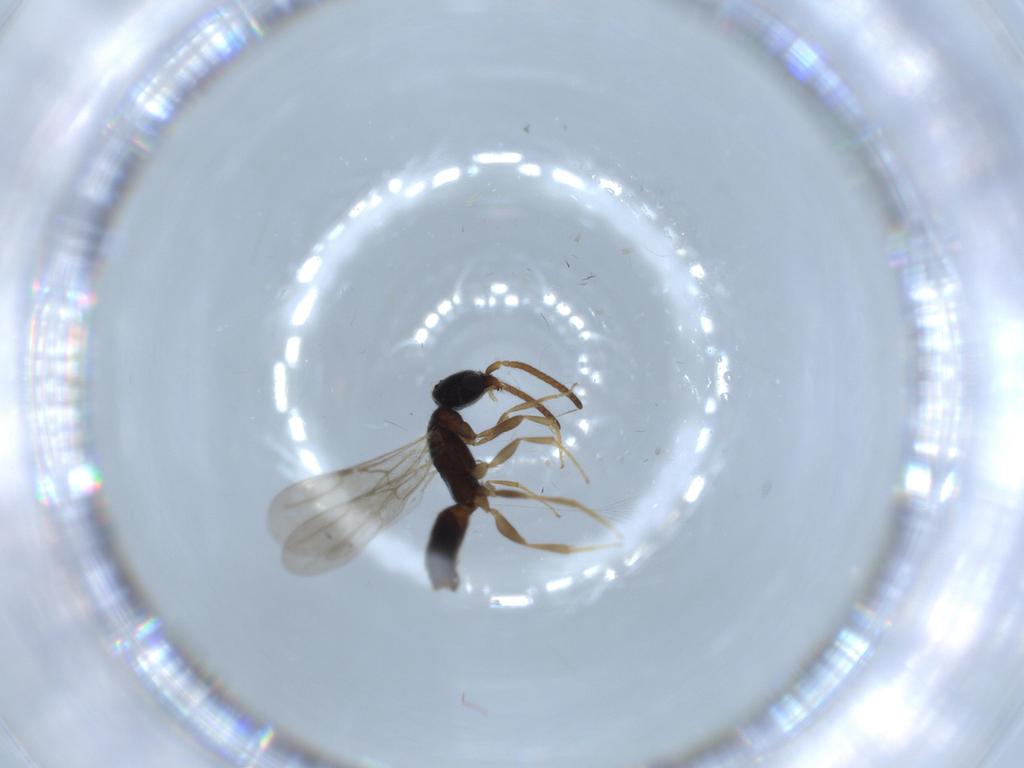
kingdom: Animalia
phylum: Arthropoda
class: Insecta
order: Hymenoptera
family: Bethylidae
